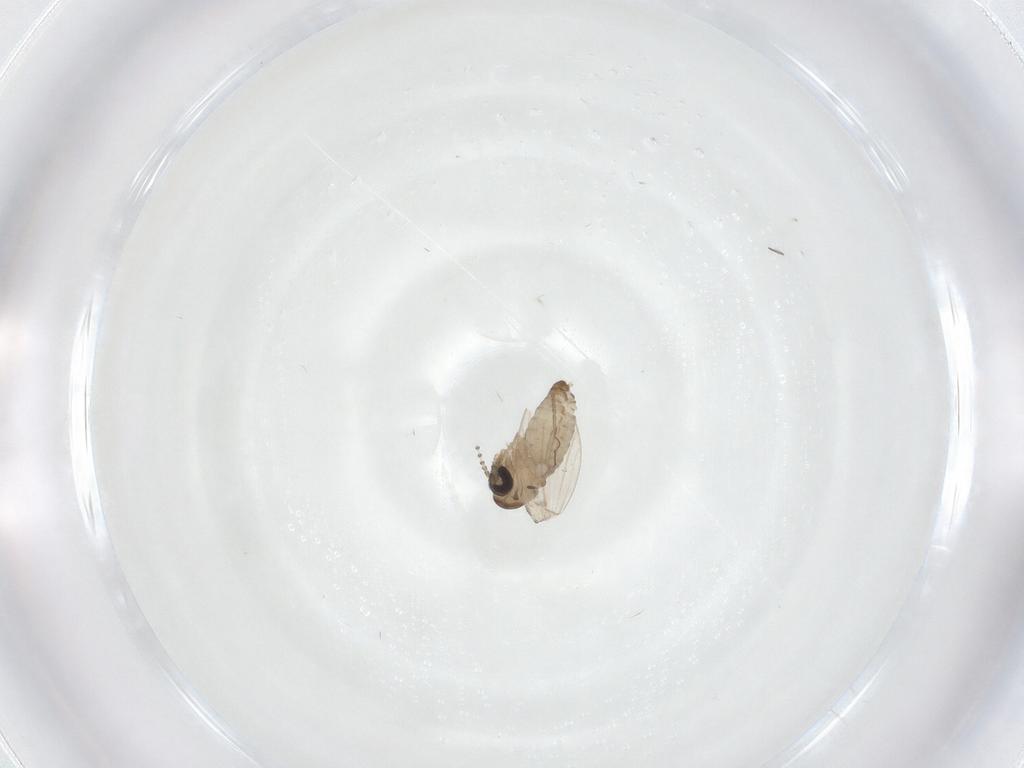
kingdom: Animalia
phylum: Arthropoda
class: Insecta
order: Diptera
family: Psychodidae
